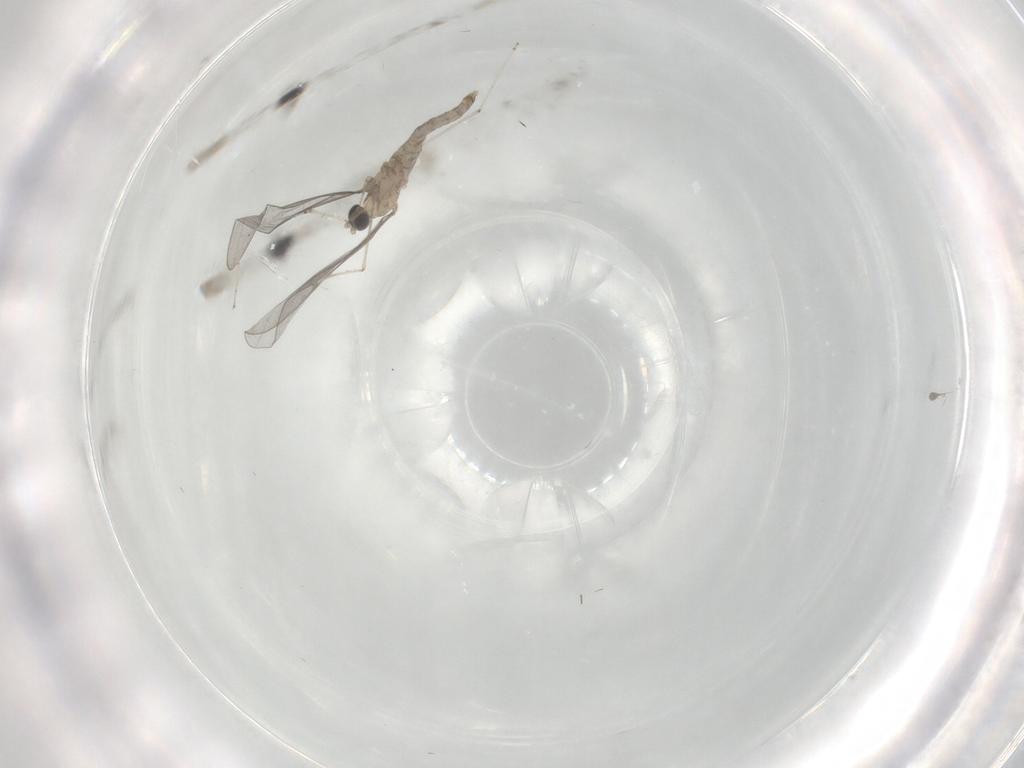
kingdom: Animalia
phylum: Arthropoda
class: Insecta
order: Diptera
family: Cecidomyiidae
